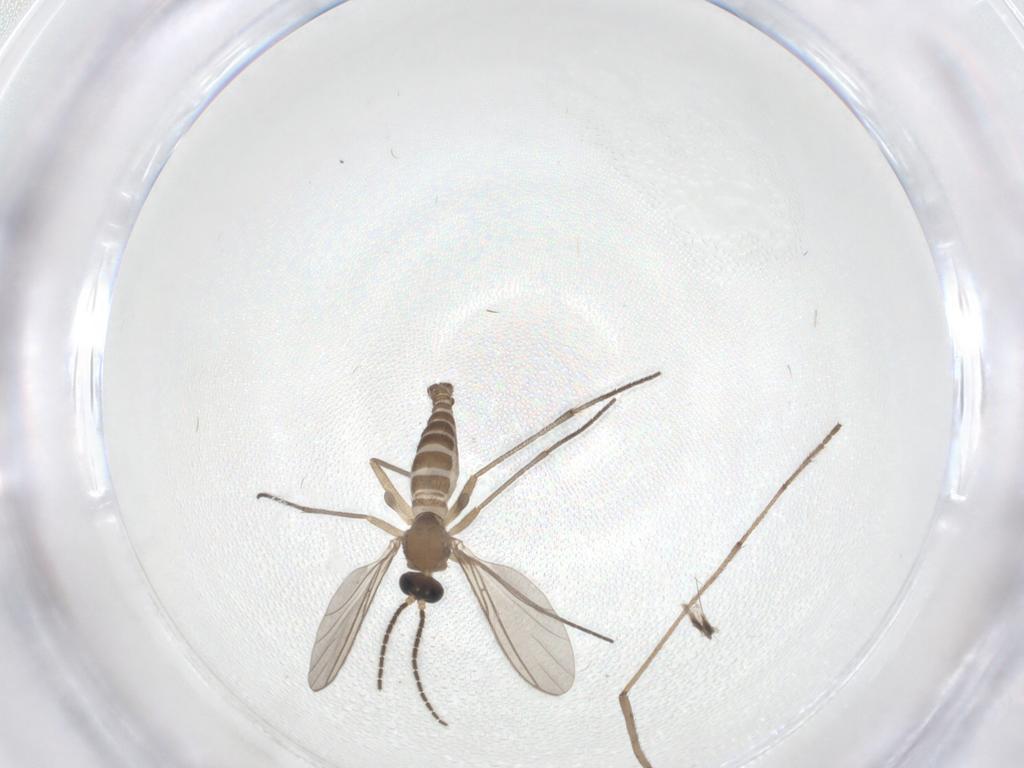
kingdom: Animalia
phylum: Arthropoda
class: Insecta
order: Diptera
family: Sciaridae
